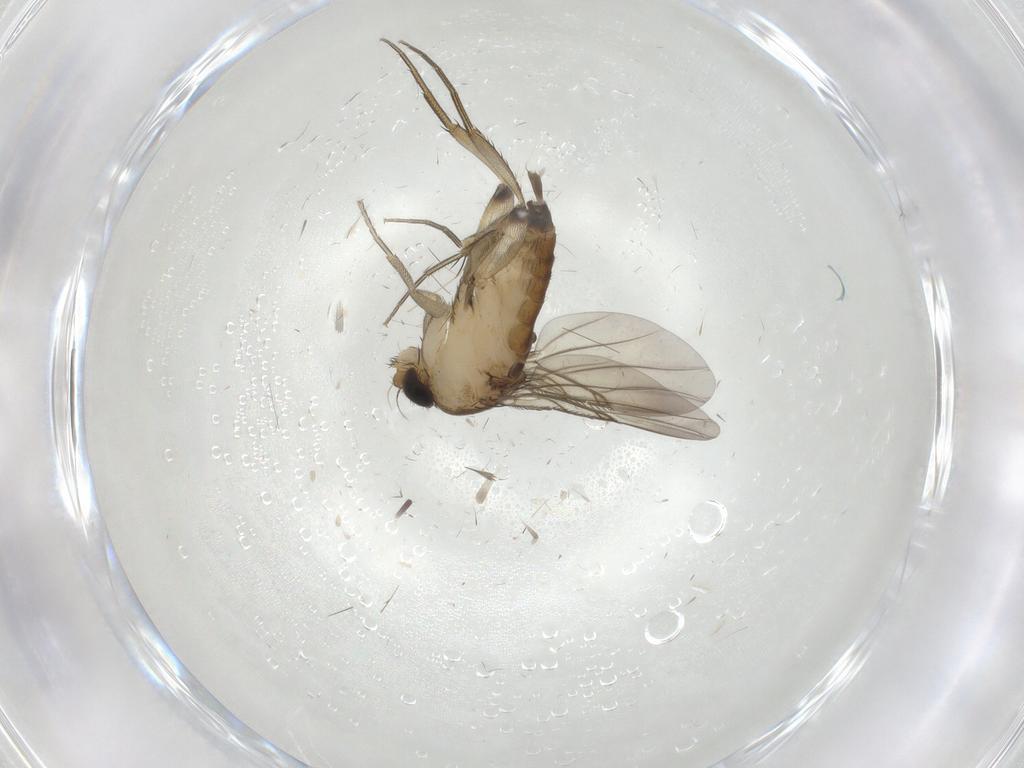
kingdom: Animalia
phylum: Arthropoda
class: Insecta
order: Diptera
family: Phoridae
